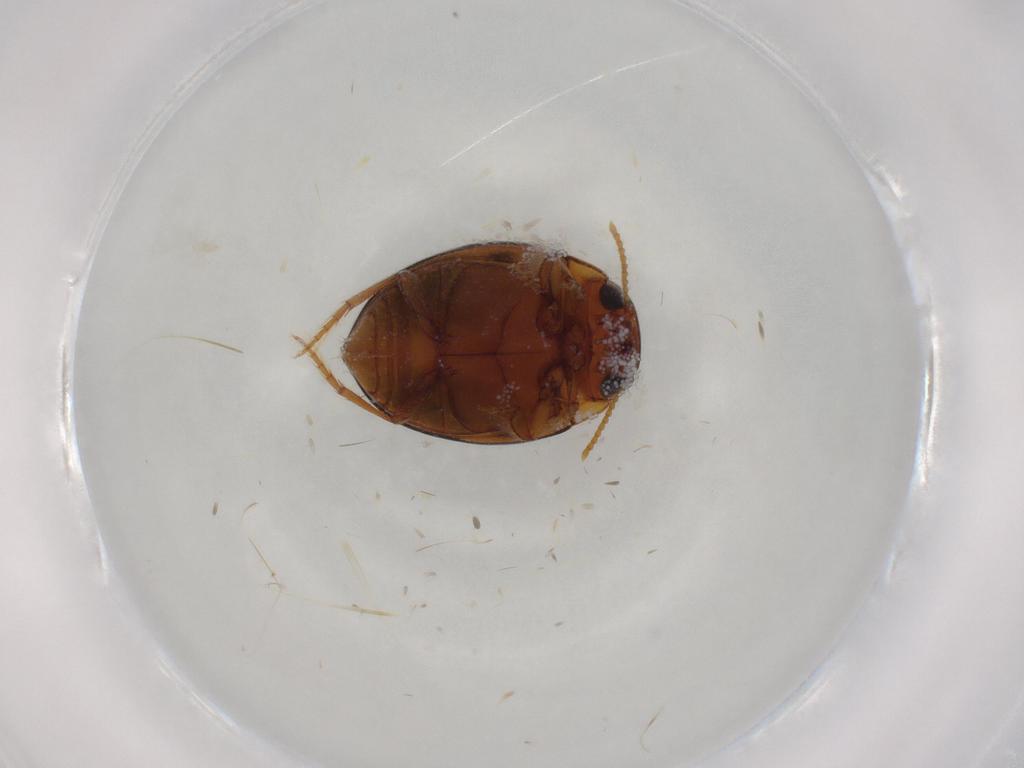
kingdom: Animalia
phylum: Arthropoda
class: Insecta
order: Coleoptera
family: Dytiscidae
